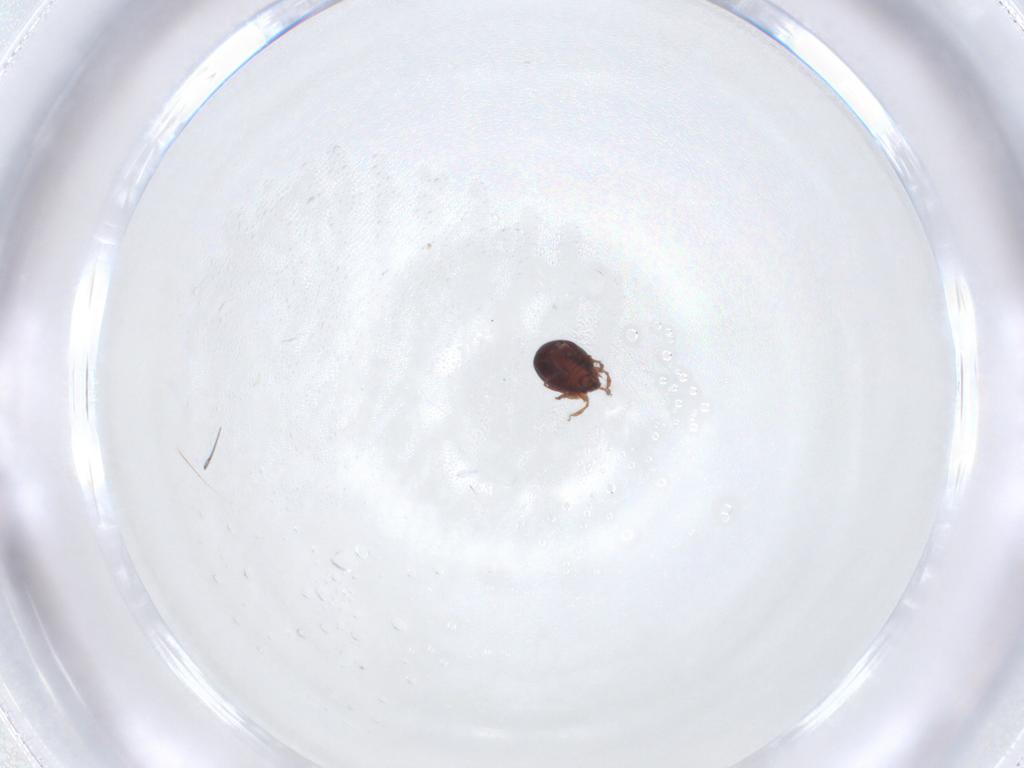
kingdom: Animalia
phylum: Arthropoda
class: Arachnida
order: Sarcoptiformes
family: Ceratozetidae
